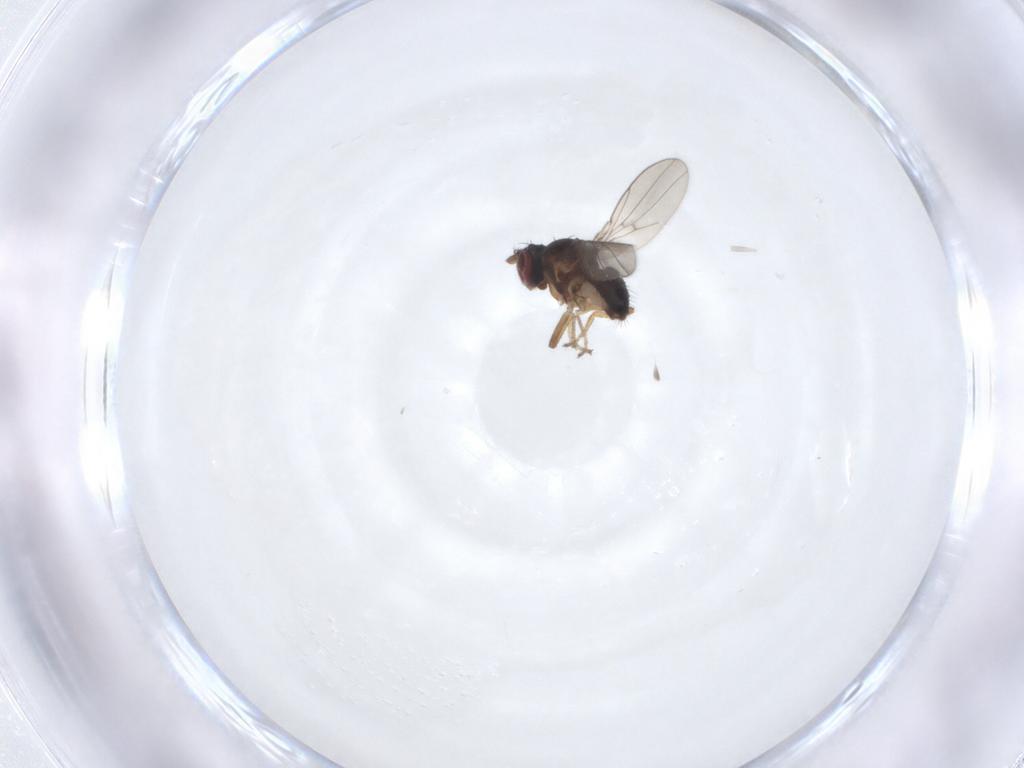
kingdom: Animalia
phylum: Arthropoda
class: Insecta
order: Diptera
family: Ephydridae
